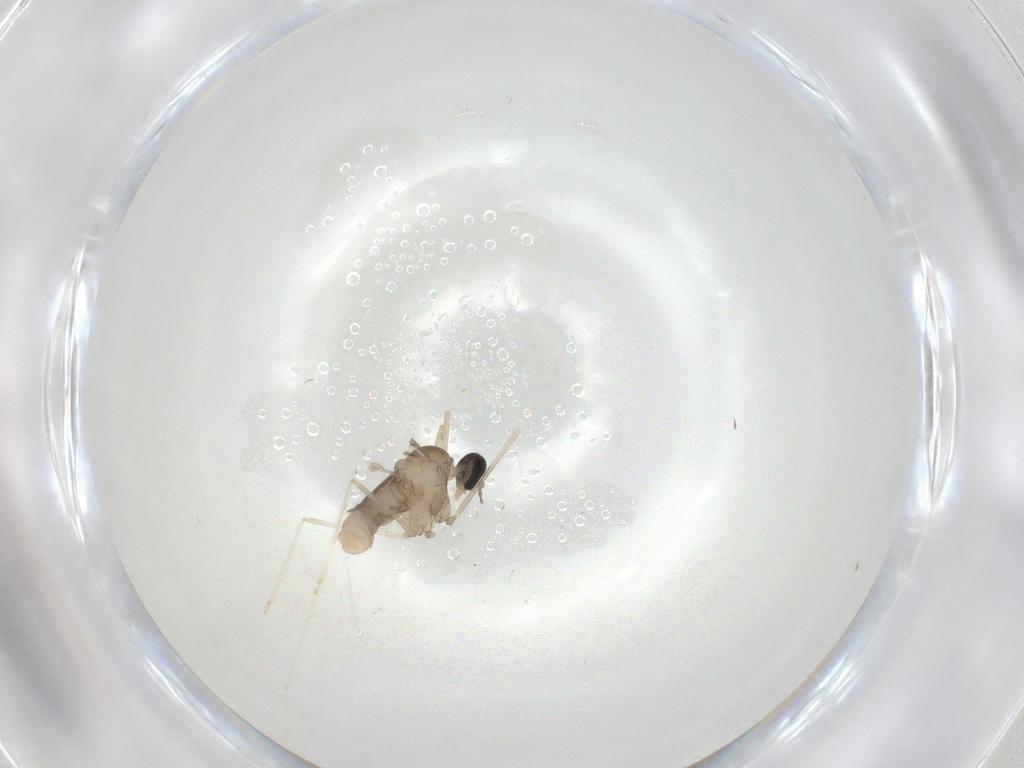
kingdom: Animalia
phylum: Arthropoda
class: Insecta
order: Diptera
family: Cecidomyiidae
